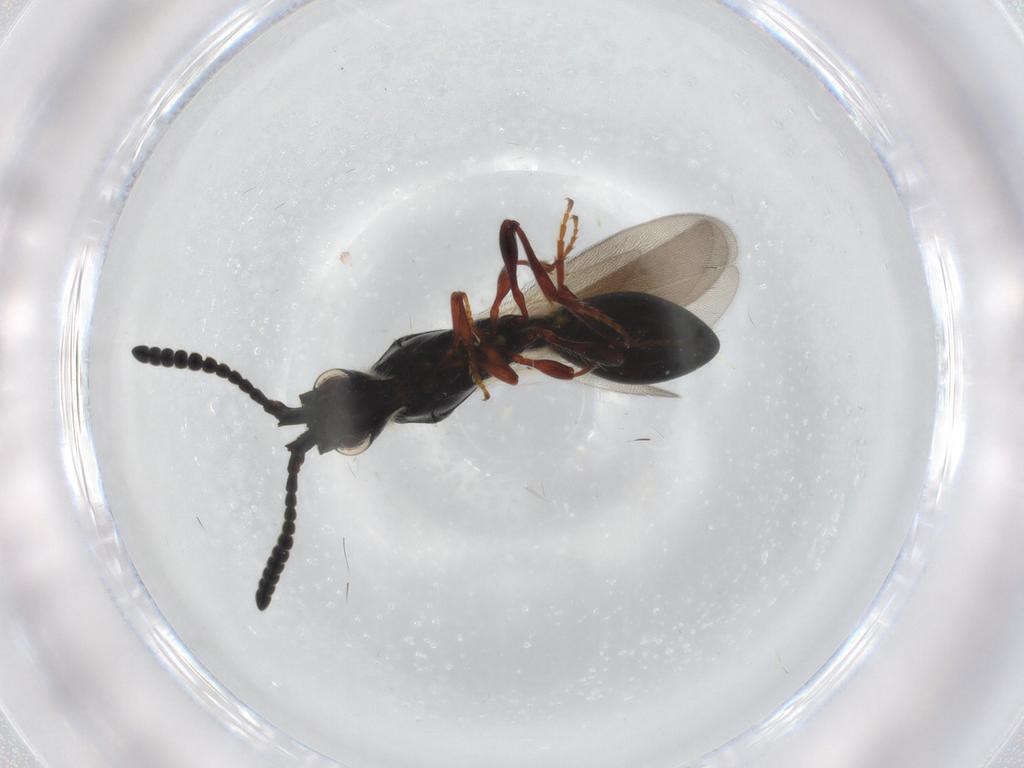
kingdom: Animalia
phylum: Arthropoda
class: Insecta
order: Hymenoptera
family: Diapriidae
